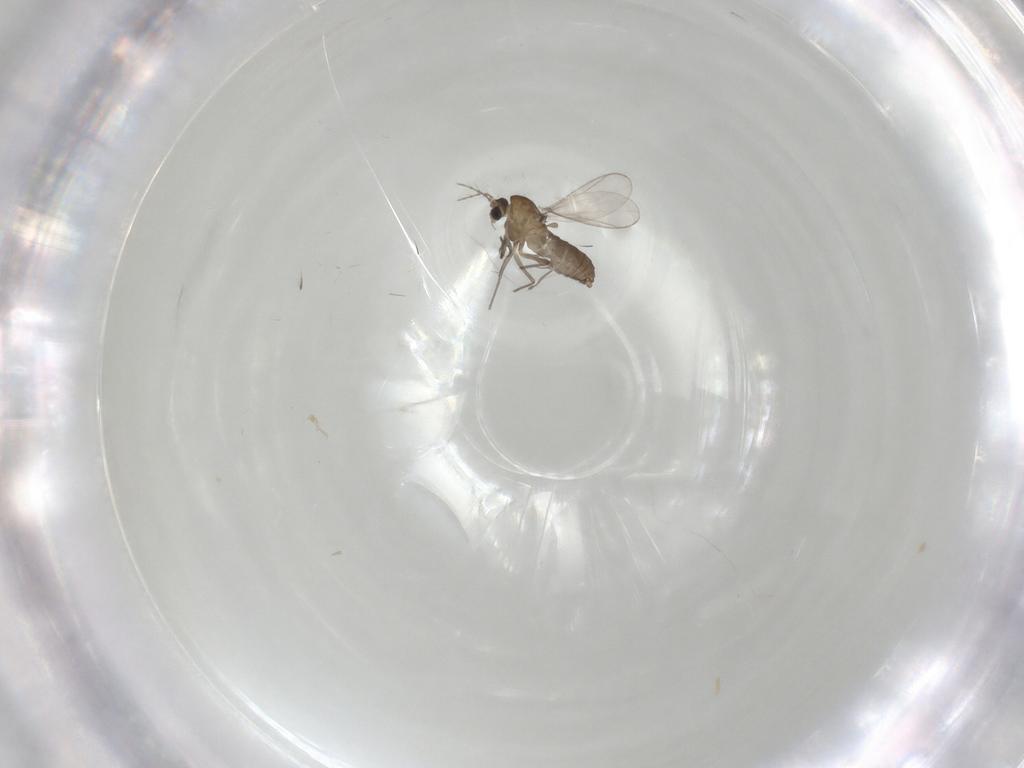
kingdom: Animalia
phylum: Arthropoda
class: Insecta
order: Diptera
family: Chironomidae
